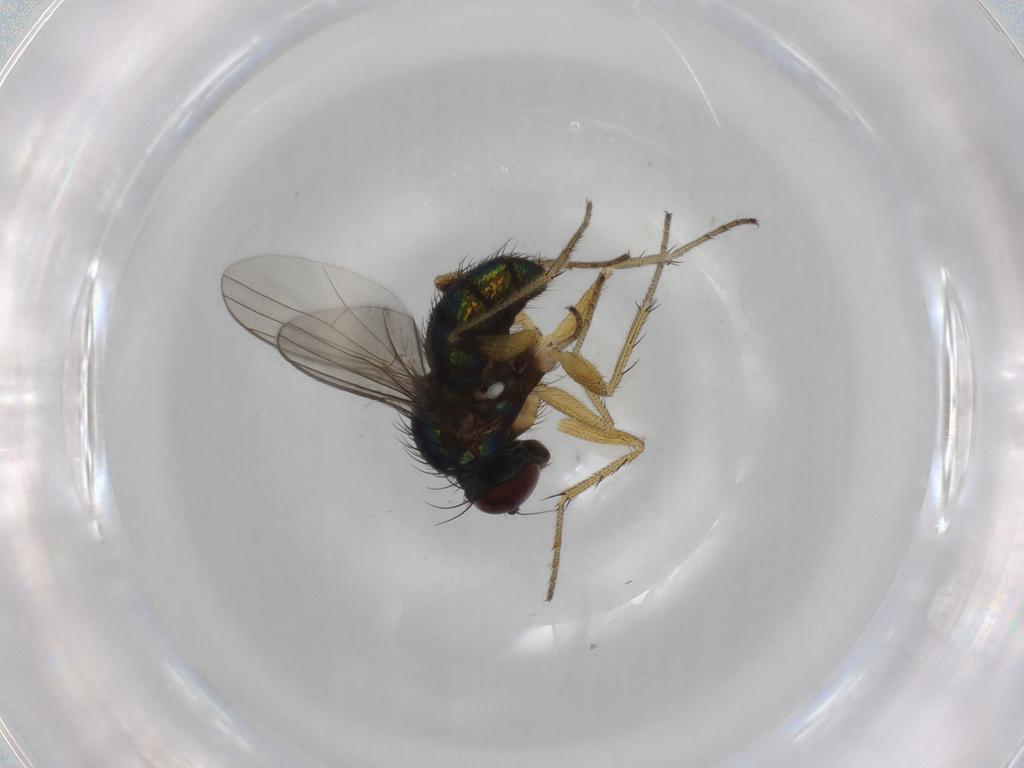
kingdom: Animalia
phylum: Arthropoda
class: Insecta
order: Diptera
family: Dolichopodidae
